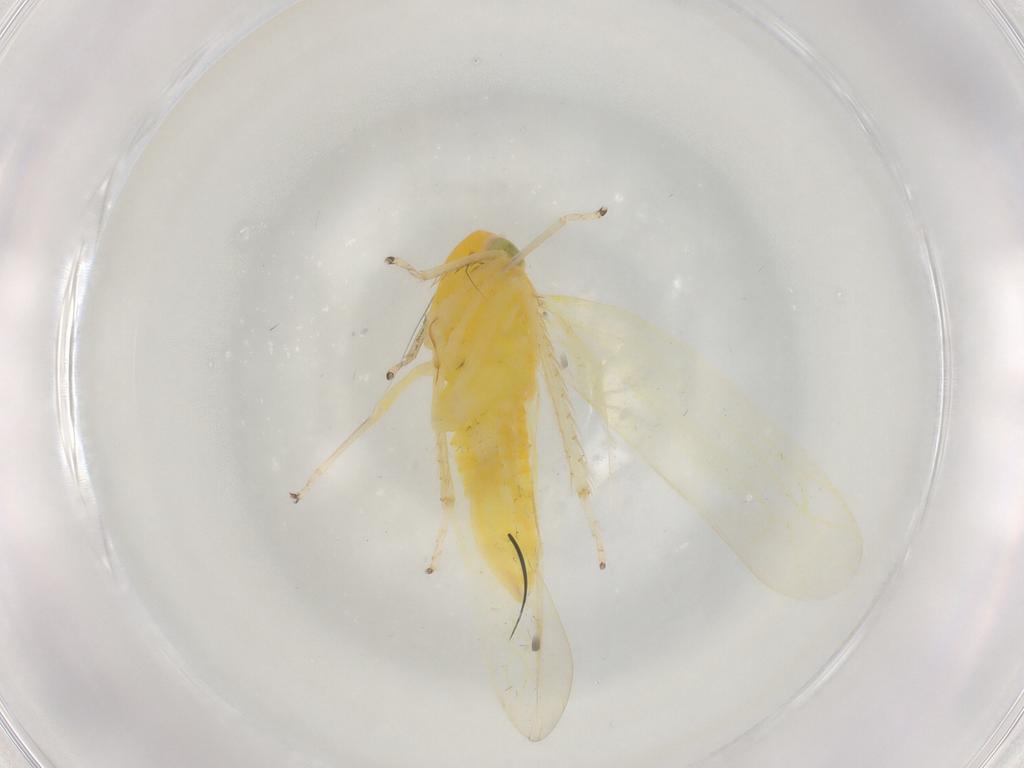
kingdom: Animalia
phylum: Arthropoda
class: Insecta
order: Hemiptera
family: Cicadellidae
